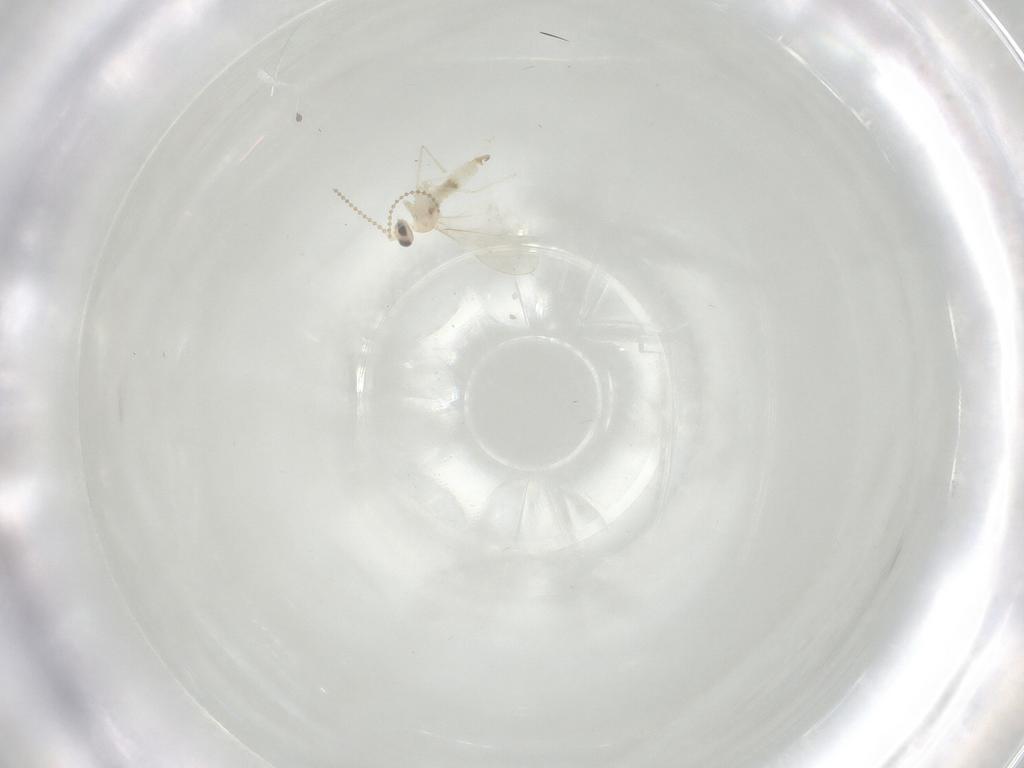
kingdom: Animalia
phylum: Arthropoda
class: Insecta
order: Diptera
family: Cecidomyiidae
